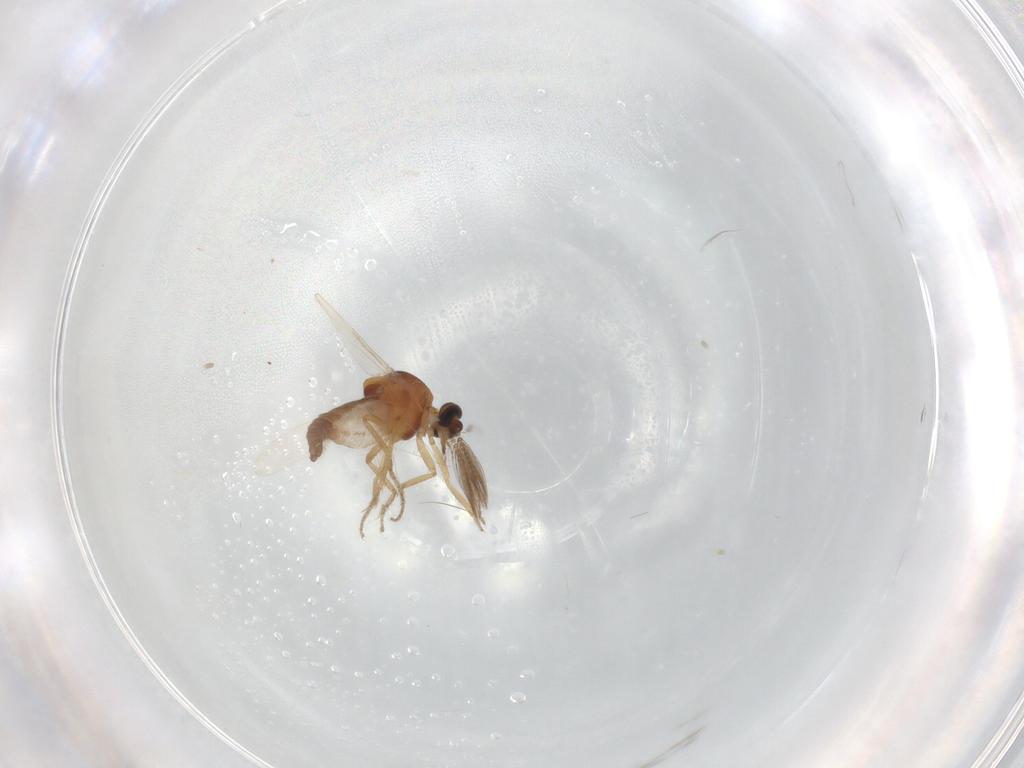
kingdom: Animalia
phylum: Arthropoda
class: Insecta
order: Diptera
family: Ceratopogonidae
